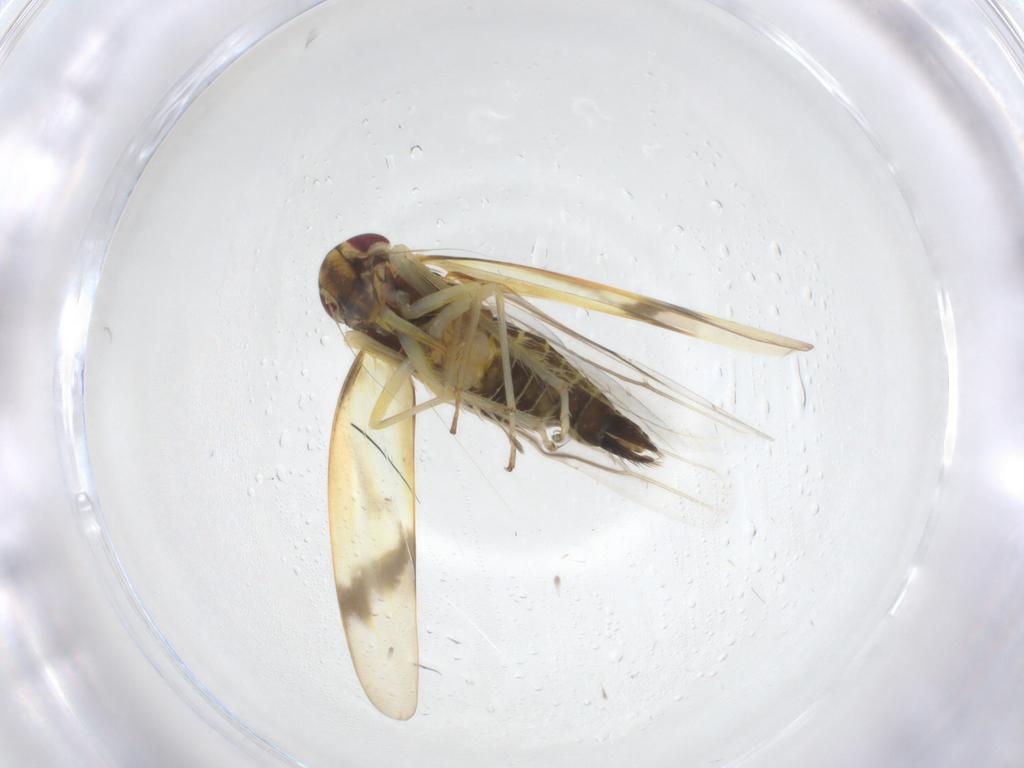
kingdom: Animalia
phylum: Arthropoda
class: Insecta
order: Hemiptera
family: Cicadellidae
